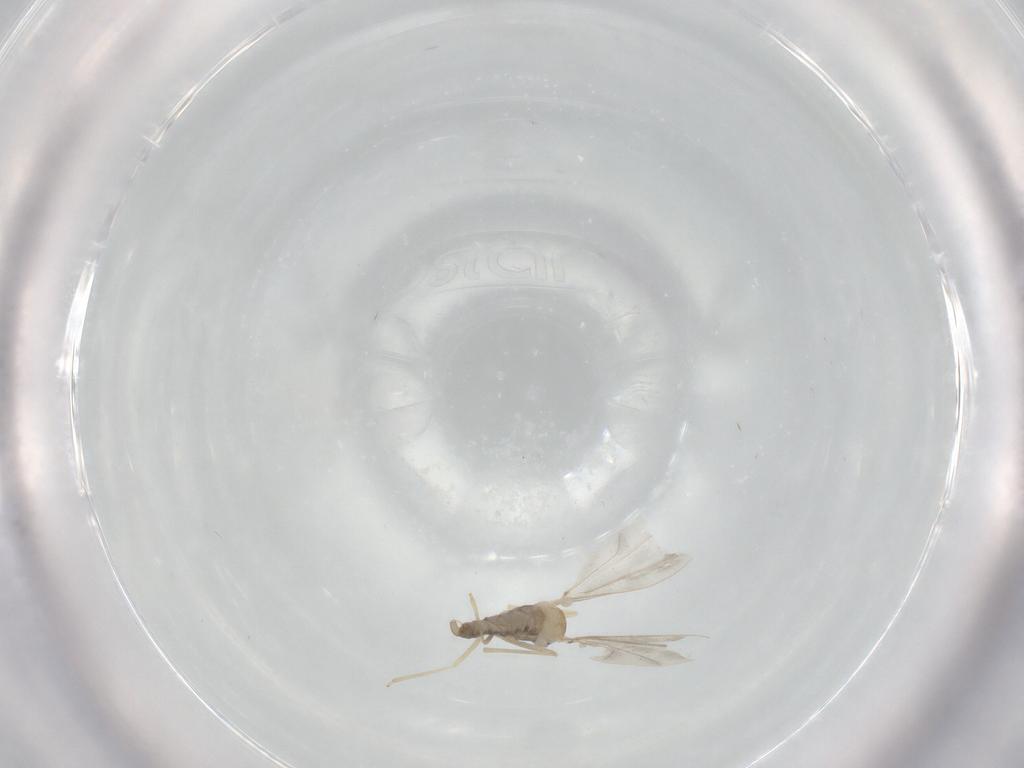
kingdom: Animalia
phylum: Arthropoda
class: Insecta
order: Diptera
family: Cecidomyiidae
